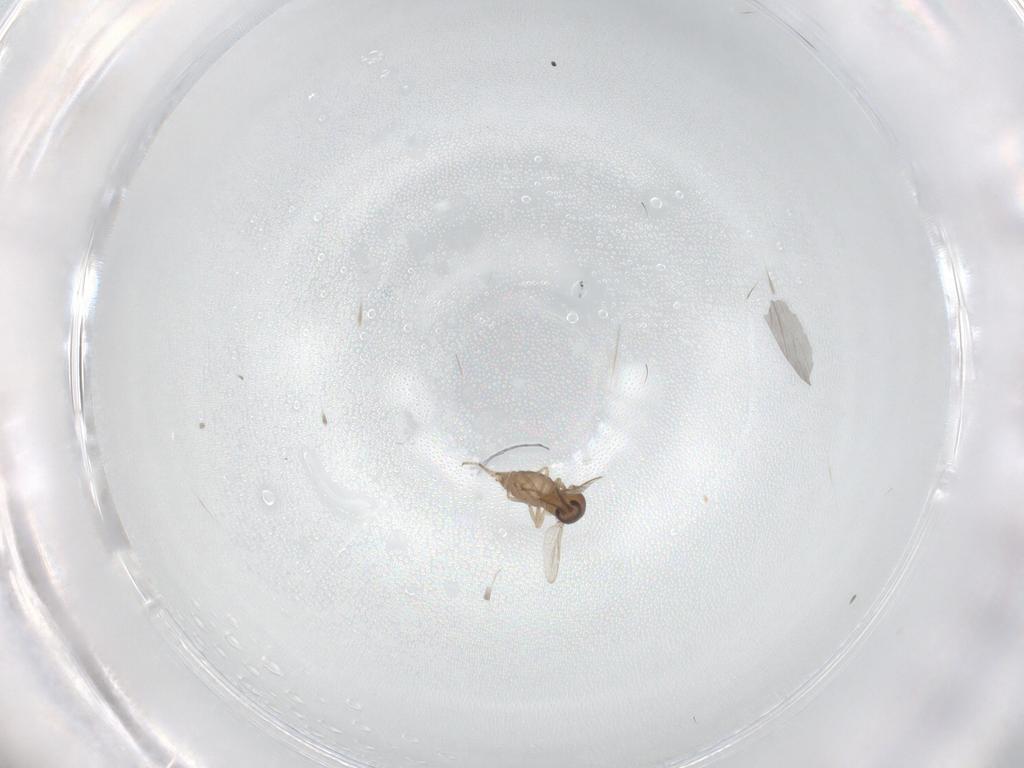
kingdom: Animalia
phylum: Arthropoda
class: Insecta
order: Diptera
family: Ceratopogonidae
